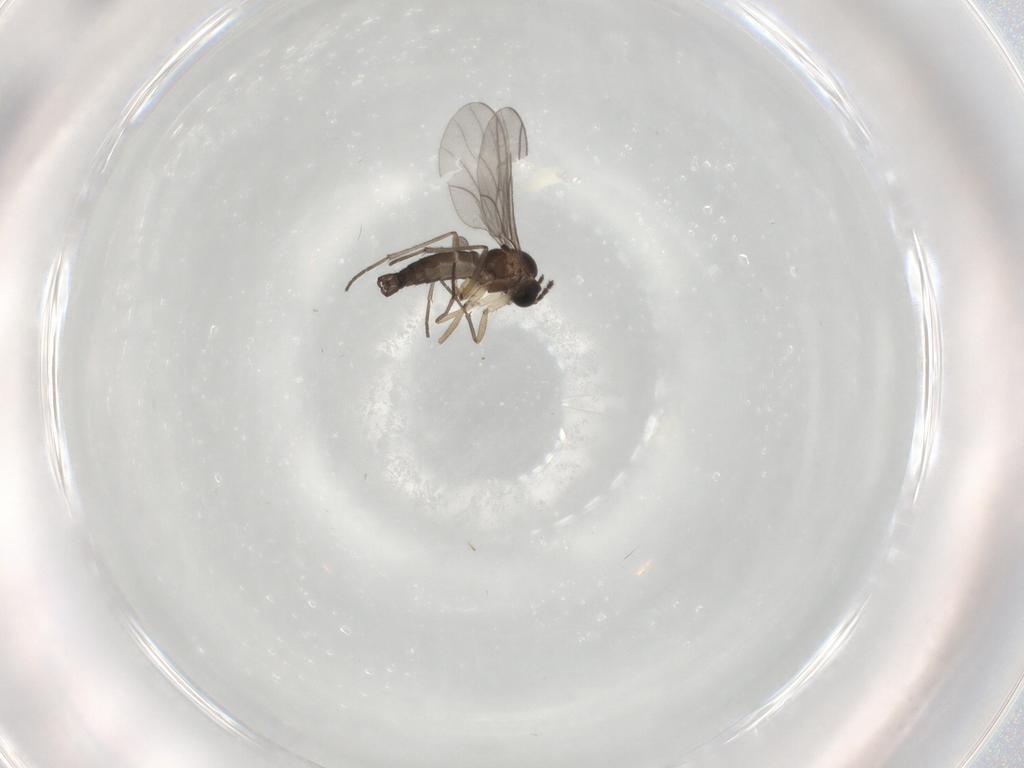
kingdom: Animalia
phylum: Arthropoda
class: Insecta
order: Diptera
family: Sciaridae
